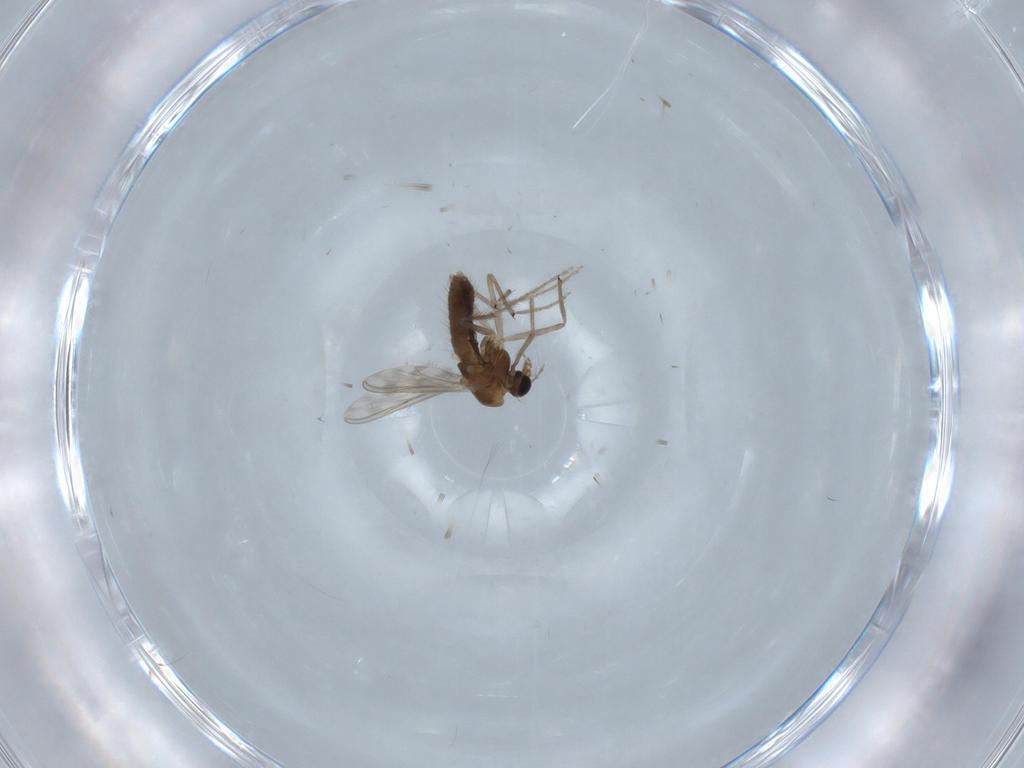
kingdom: Animalia
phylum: Arthropoda
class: Insecta
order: Diptera
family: Chironomidae
